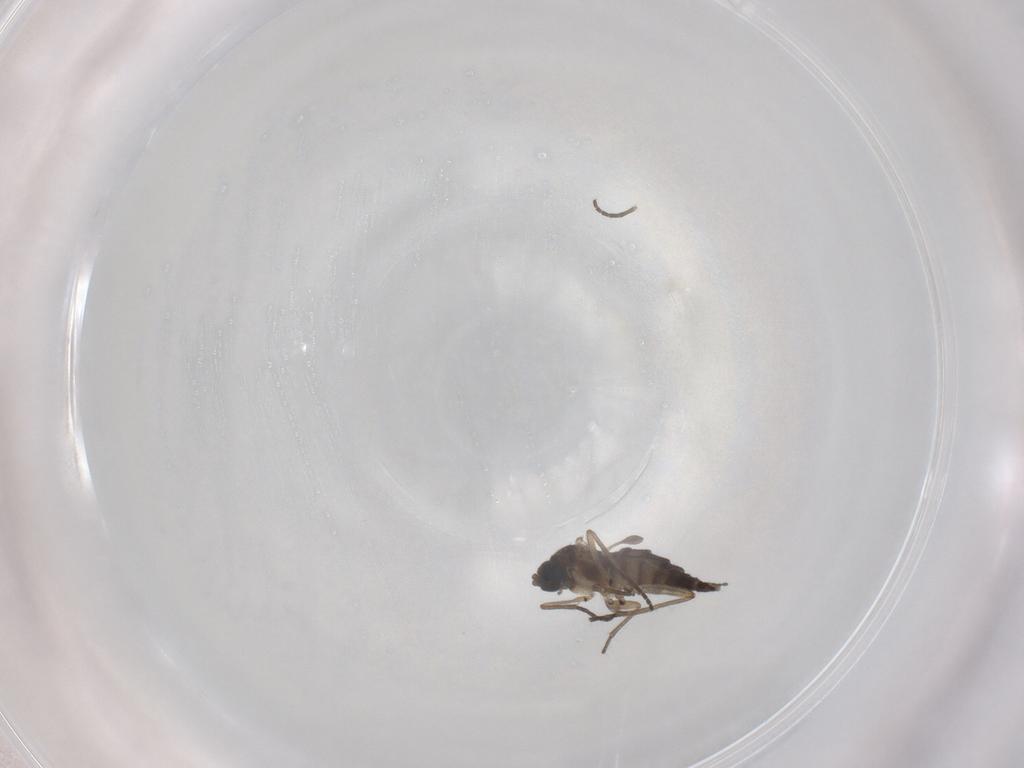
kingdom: Animalia
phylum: Arthropoda
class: Insecta
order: Diptera
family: Sciaridae
